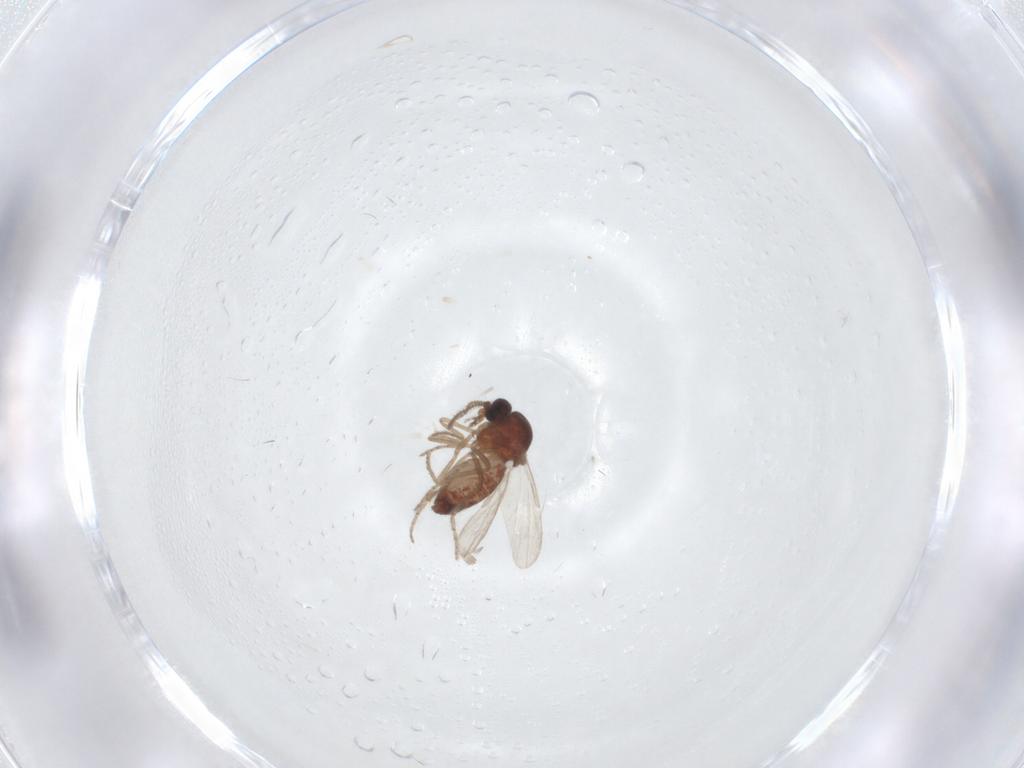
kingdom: Animalia
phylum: Arthropoda
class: Insecta
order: Diptera
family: Ceratopogonidae
